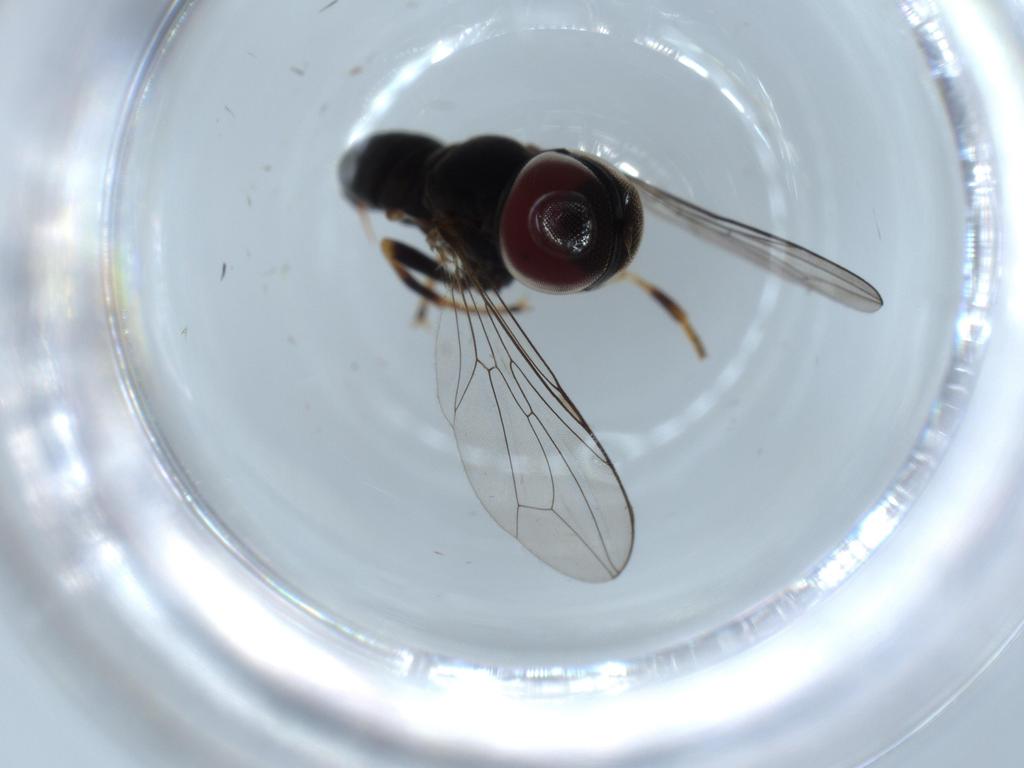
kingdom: Animalia
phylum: Arthropoda
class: Insecta
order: Diptera
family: Pipunculidae
